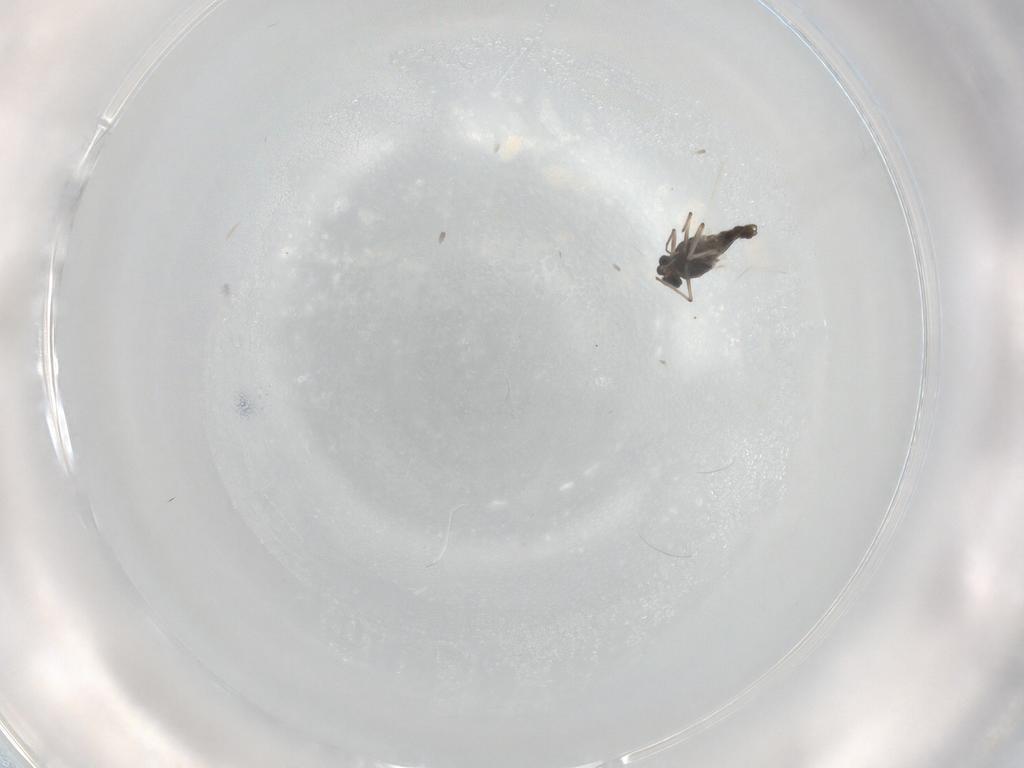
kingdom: Animalia
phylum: Arthropoda
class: Insecta
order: Diptera
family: Chironomidae
